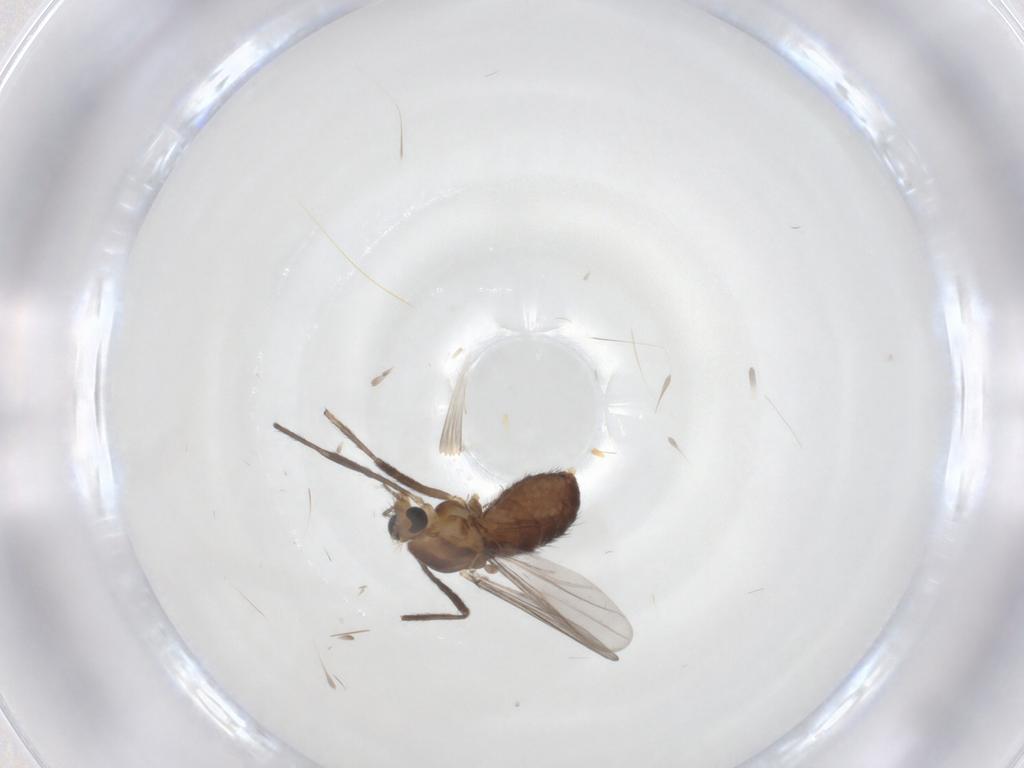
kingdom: Animalia
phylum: Arthropoda
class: Insecta
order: Diptera
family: Chironomidae
